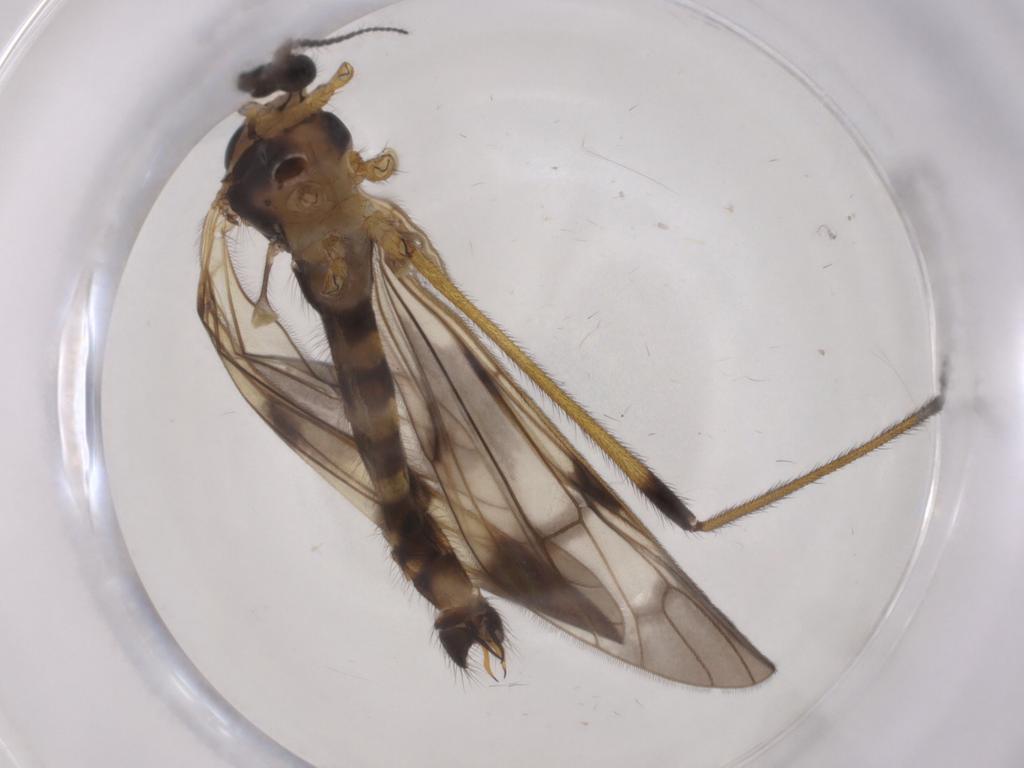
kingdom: Animalia
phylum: Arthropoda
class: Insecta
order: Diptera
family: Limoniidae
